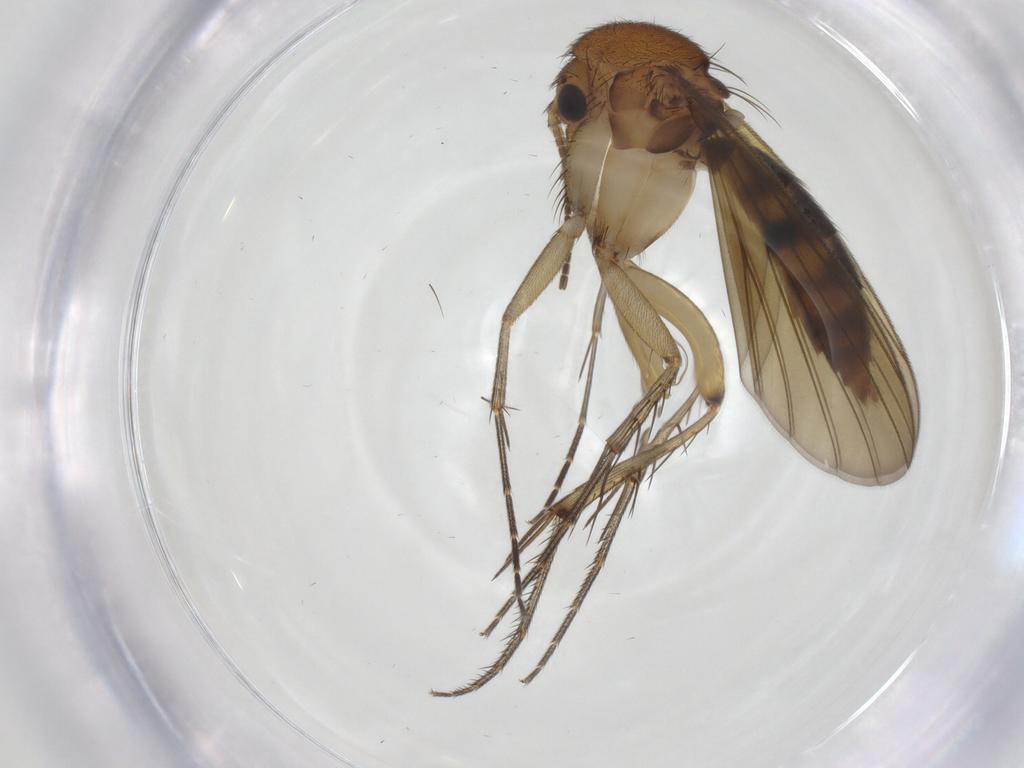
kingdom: Animalia
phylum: Arthropoda
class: Insecta
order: Diptera
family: Mycetophilidae
